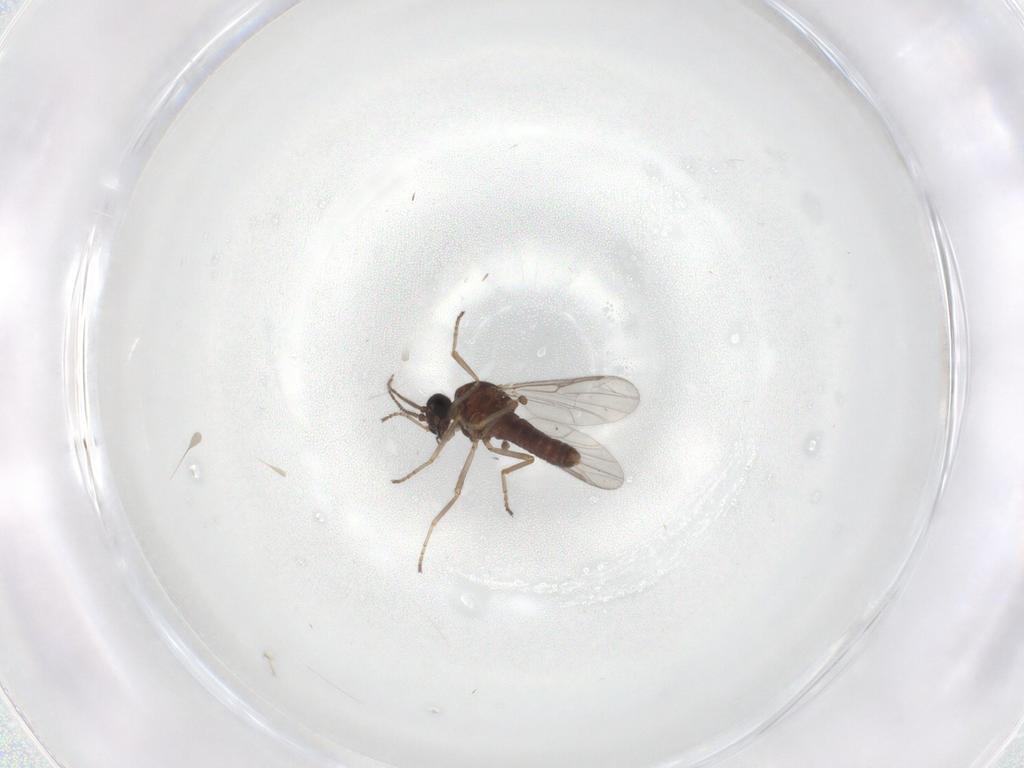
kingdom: Animalia
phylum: Arthropoda
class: Insecta
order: Diptera
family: Ceratopogonidae
